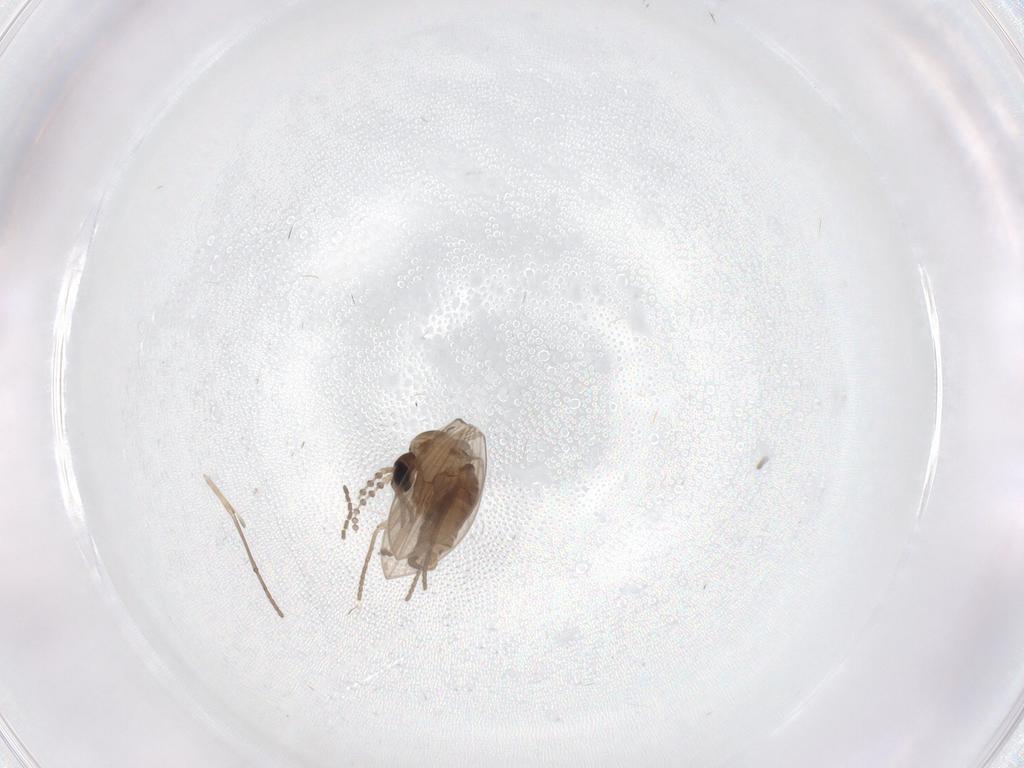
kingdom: Animalia
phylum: Arthropoda
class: Insecta
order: Diptera
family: Psychodidae
